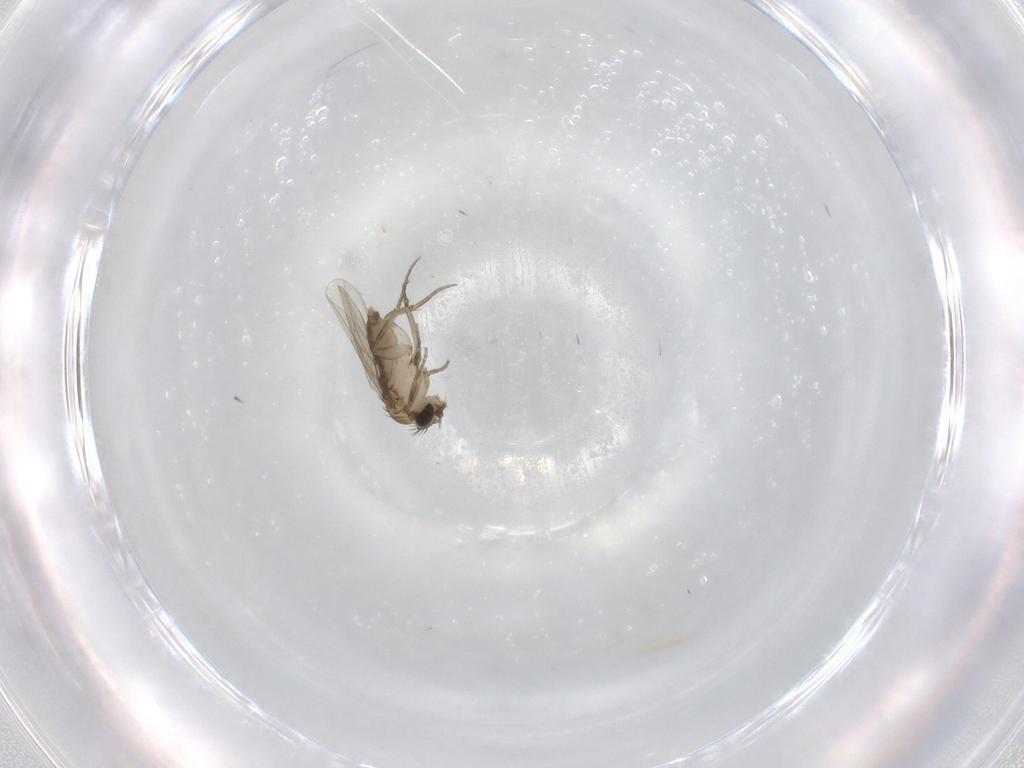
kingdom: Animalia
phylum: Arthropoda
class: Insecta
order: Diptera
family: Phoridae
